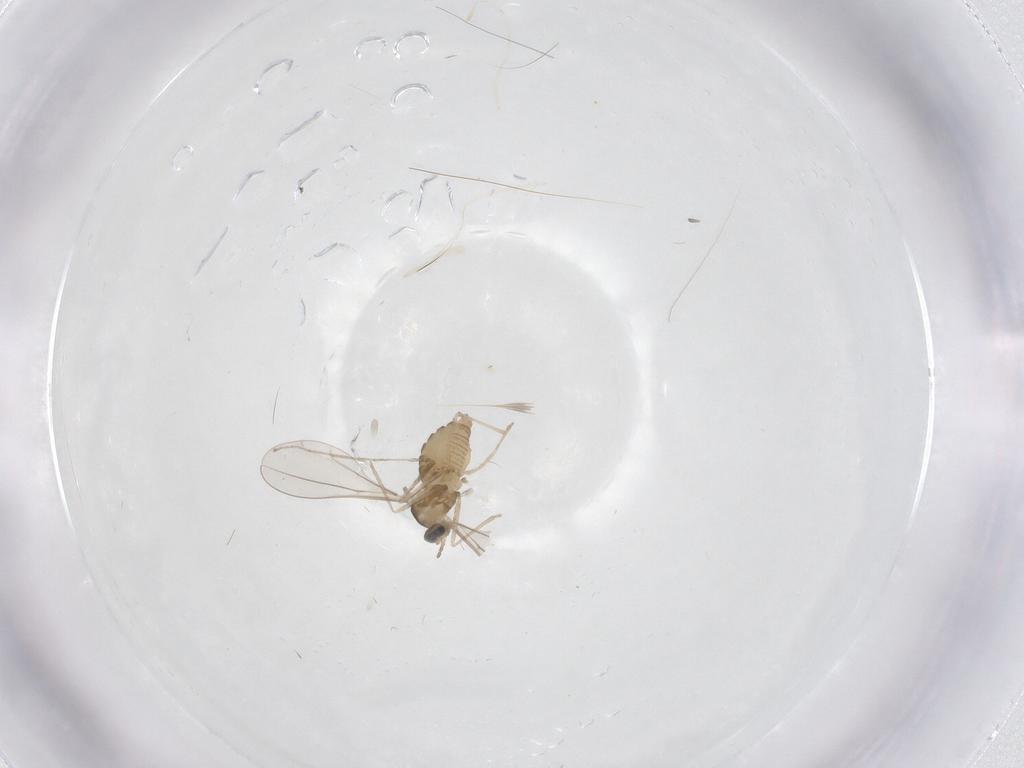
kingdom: Animalia
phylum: Arthropoda
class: Insecta
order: Diptera
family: Cecidomyiidae
